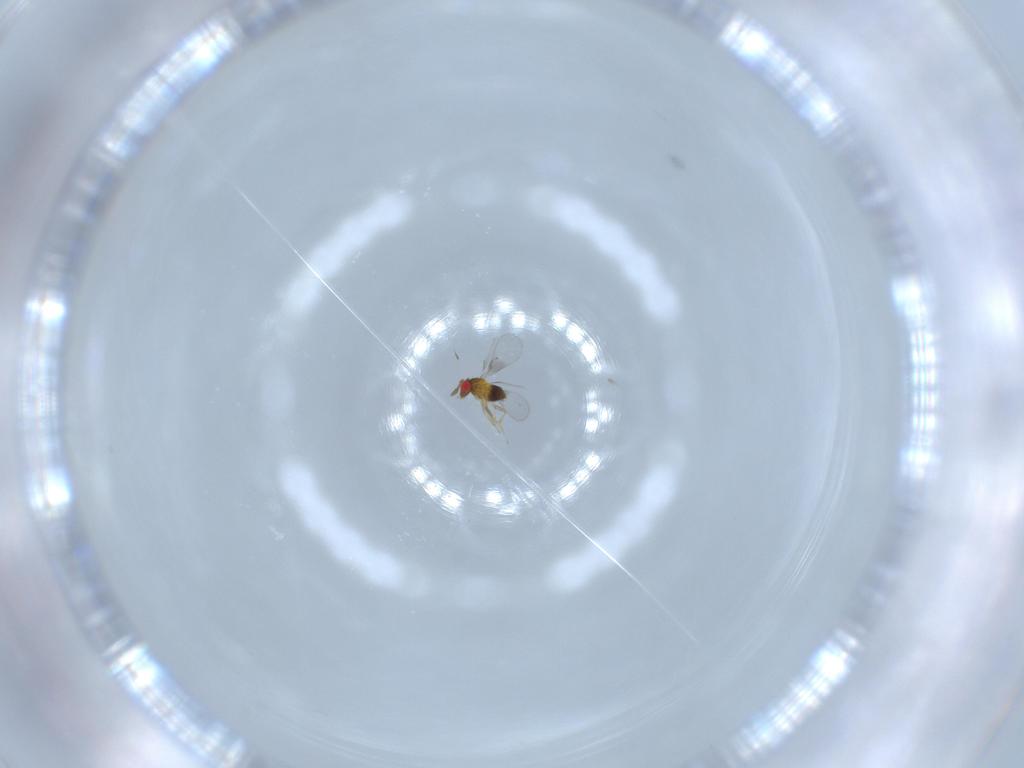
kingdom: Animalia
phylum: Arthropoda
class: Insecta
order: Hymenoptera
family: Trichogrammatidae
